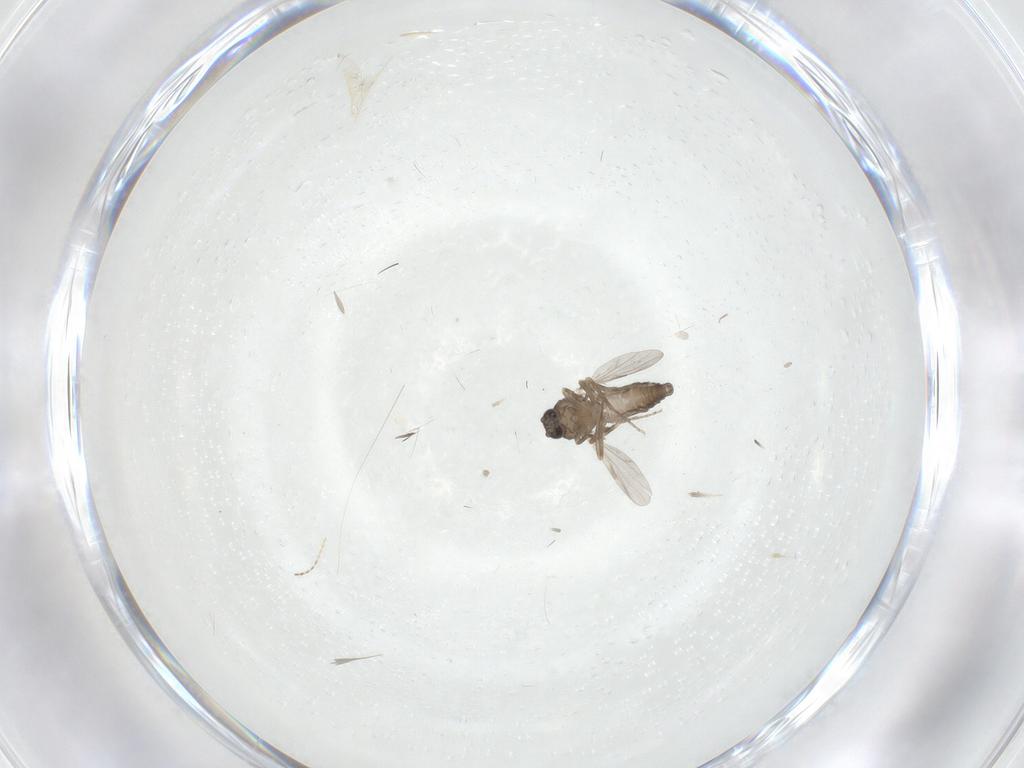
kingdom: Animalia
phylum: Arthropoda
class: Insecta
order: Diptera
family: Ceratopogonidae
